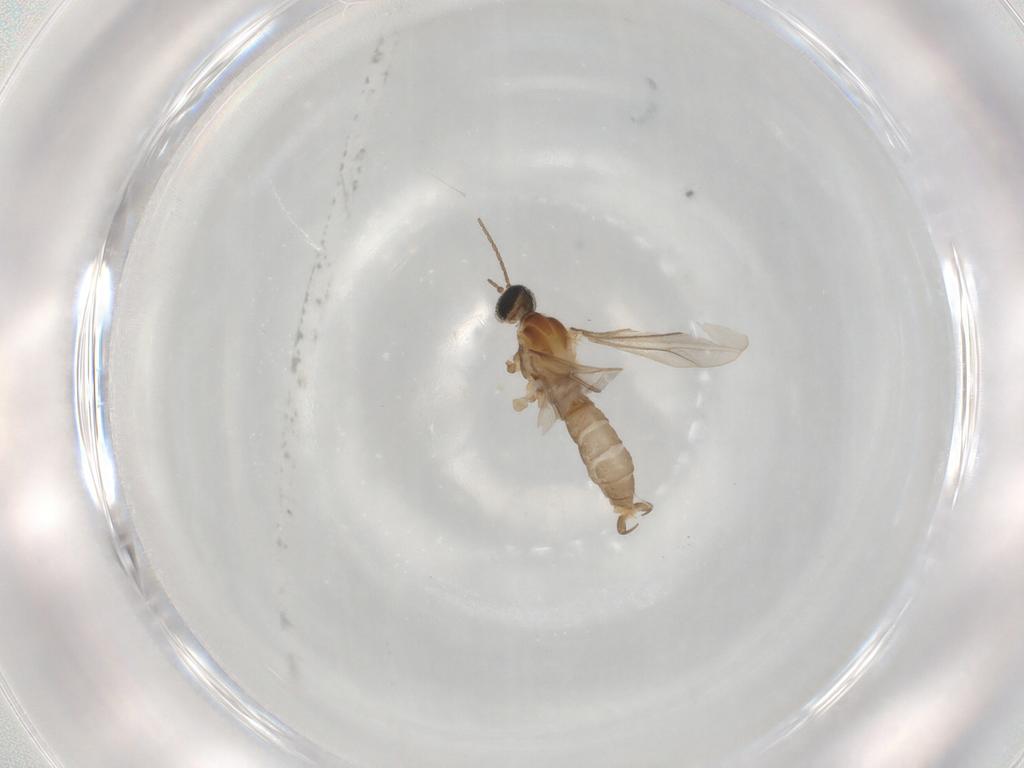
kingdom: Animalia
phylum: Arthropoda
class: Insecta
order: Diptera
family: Cecidomyiidae
